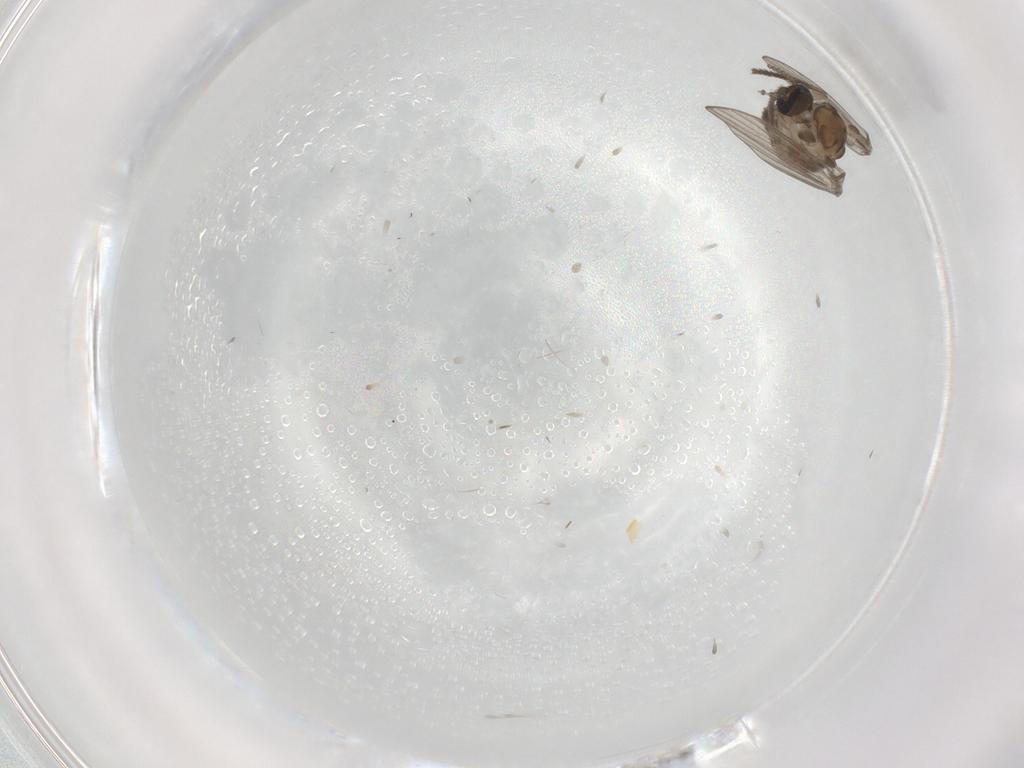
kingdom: Animalia
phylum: Arthropoda
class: Insecta
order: Diptera
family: Psychodidae
